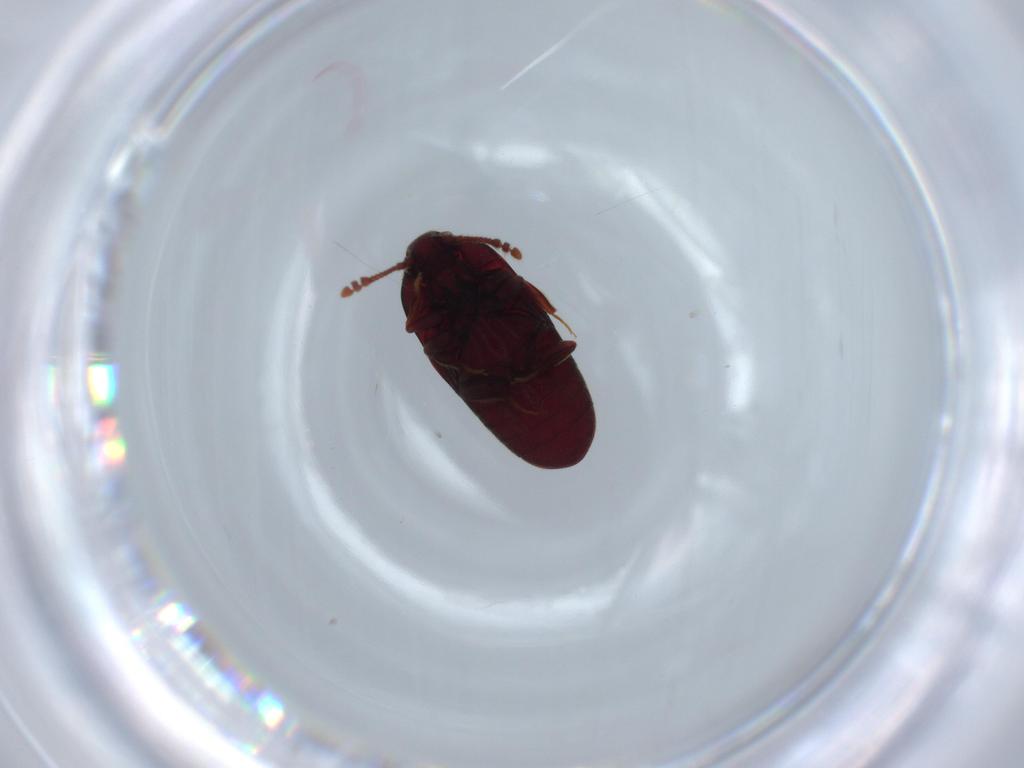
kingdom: Animalia
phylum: Arthropoda
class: Insecta
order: Coleoptera
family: Throscidae
